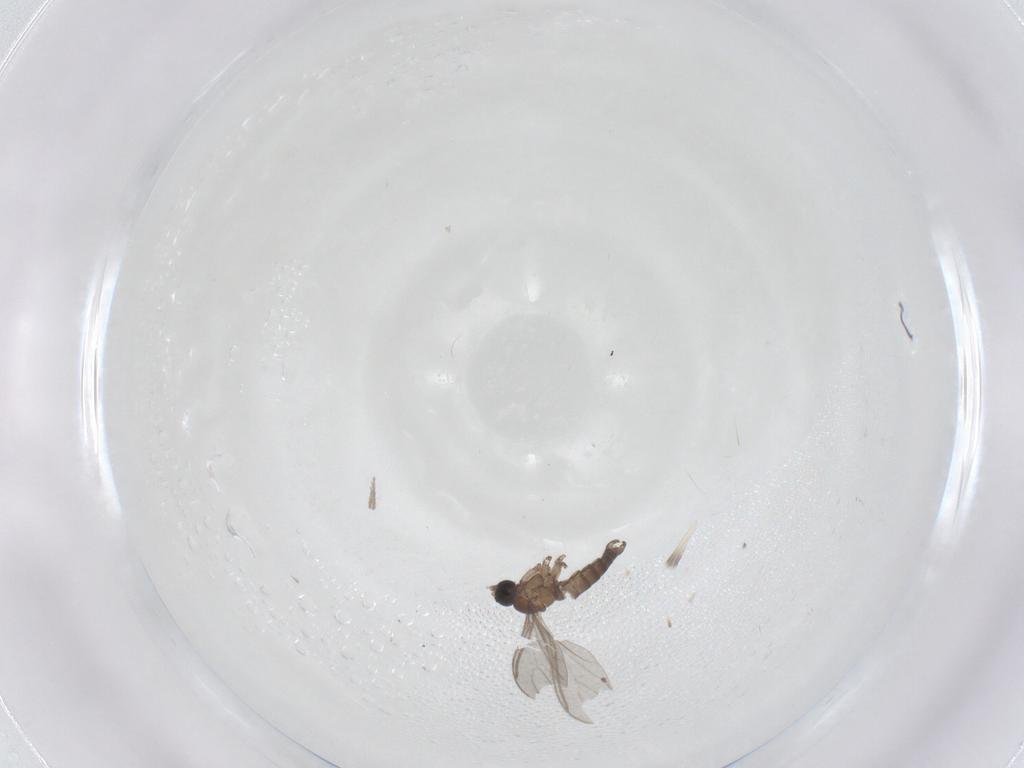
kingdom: Animalia
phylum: Arthropoda
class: Insecta
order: Diptera
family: Sciaridae
